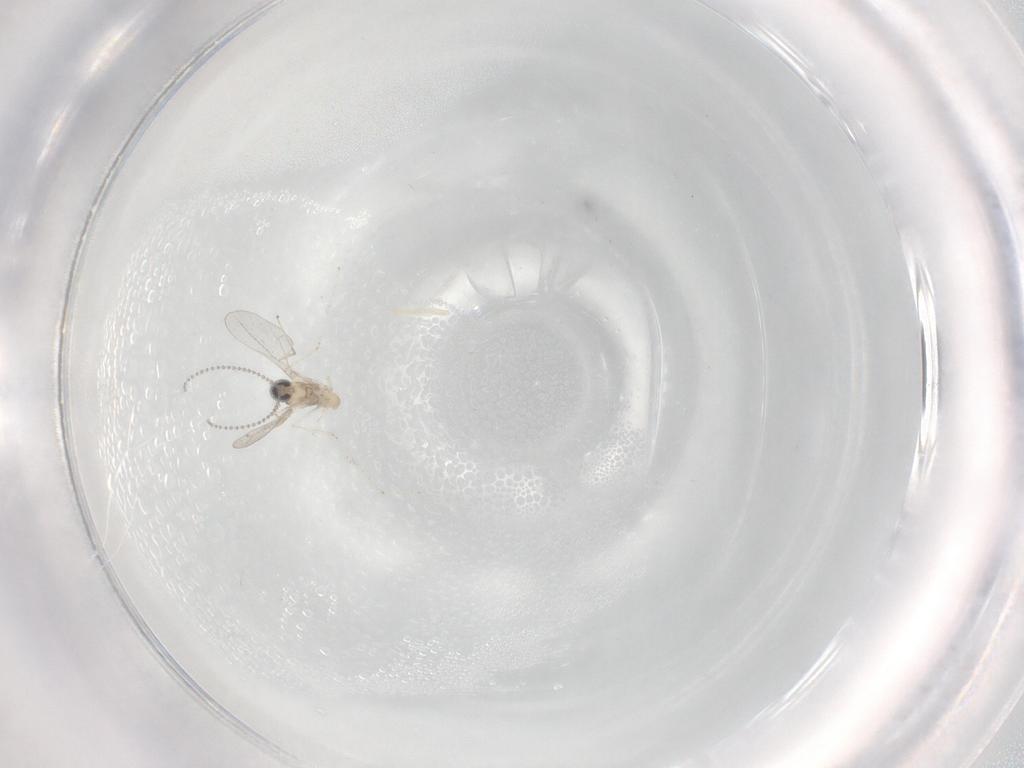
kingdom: Animalia
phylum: Arthropoda
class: Insecta
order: Diptera
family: Cecidomyiidae
